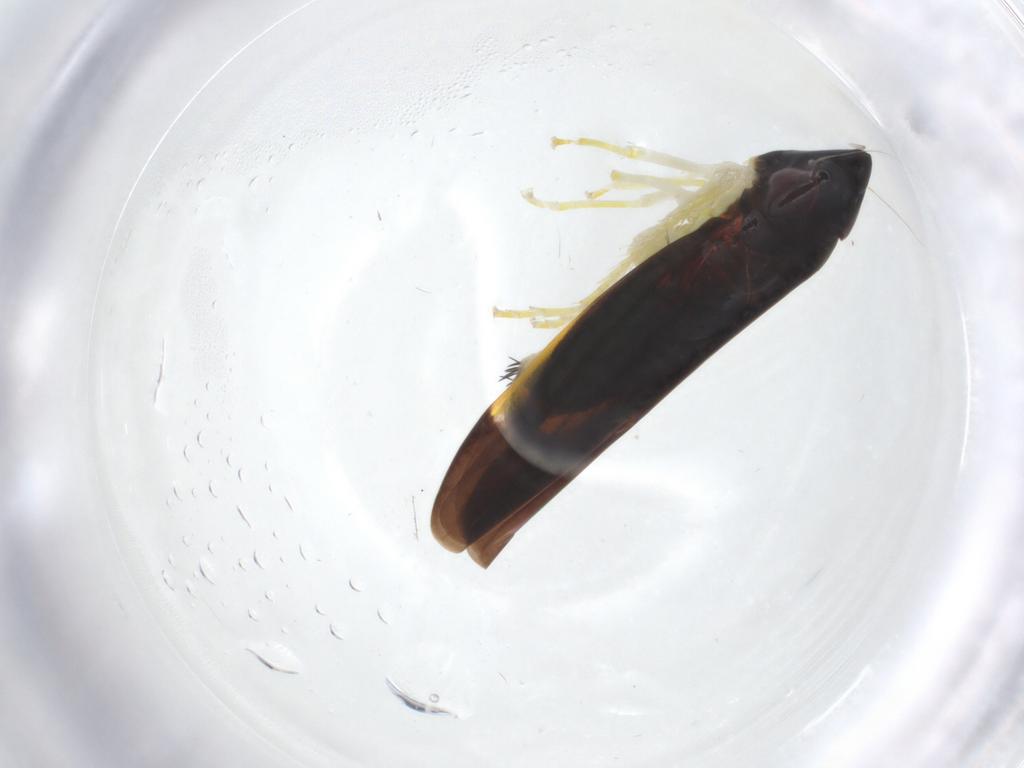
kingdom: Animalia
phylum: Arthropoda
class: Insecta
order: Hemiptera
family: Cicadellidae
